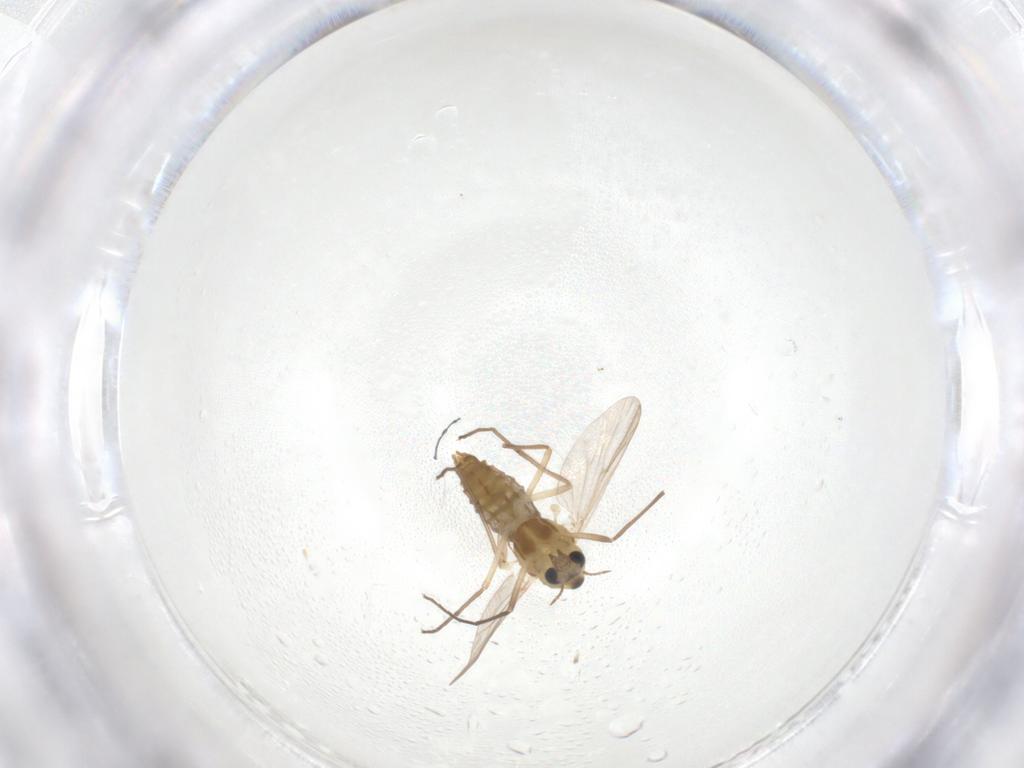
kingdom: Animalia
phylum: Arthropoda
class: Insecta
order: Diptera
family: Chironomidae
